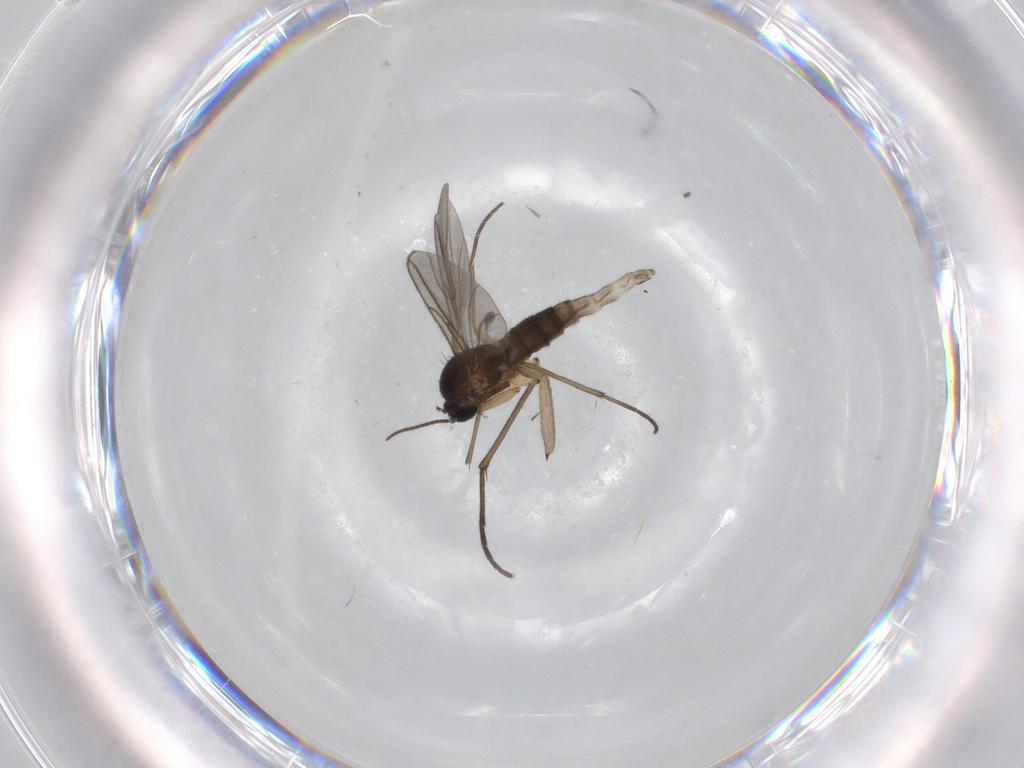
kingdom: Animalia
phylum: Arthropoda
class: Insecta
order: Diptera
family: Sciaridae
